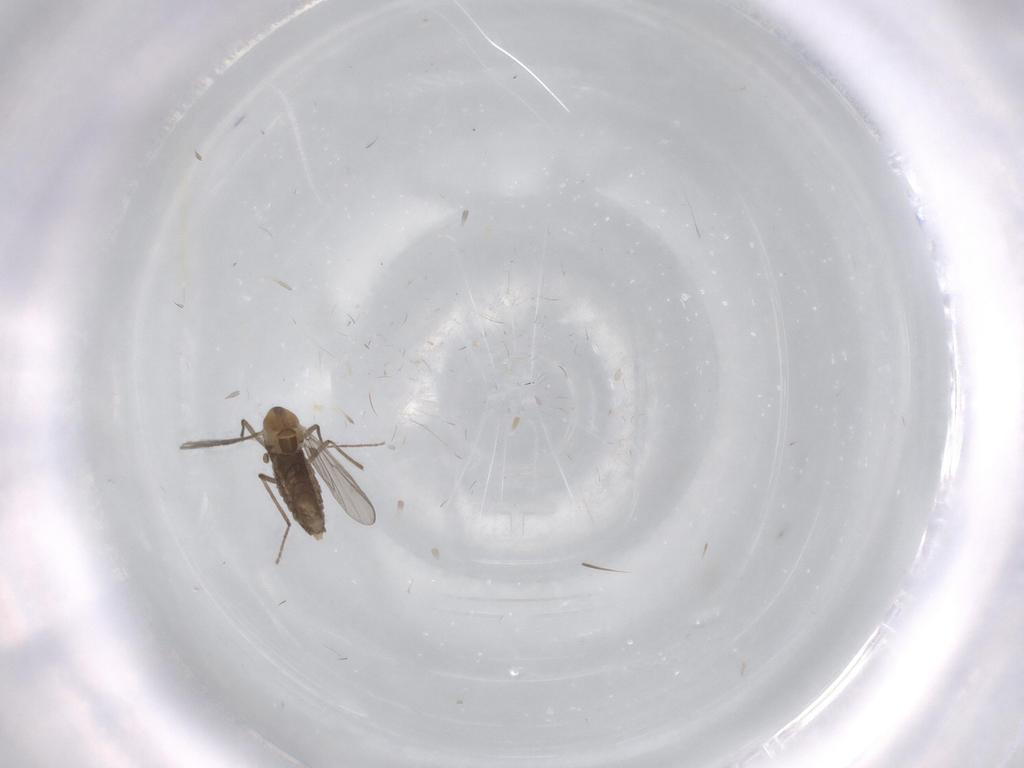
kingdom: Animalia
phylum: Arthropoda
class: Insecta
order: Diptera
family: Chironomidae
